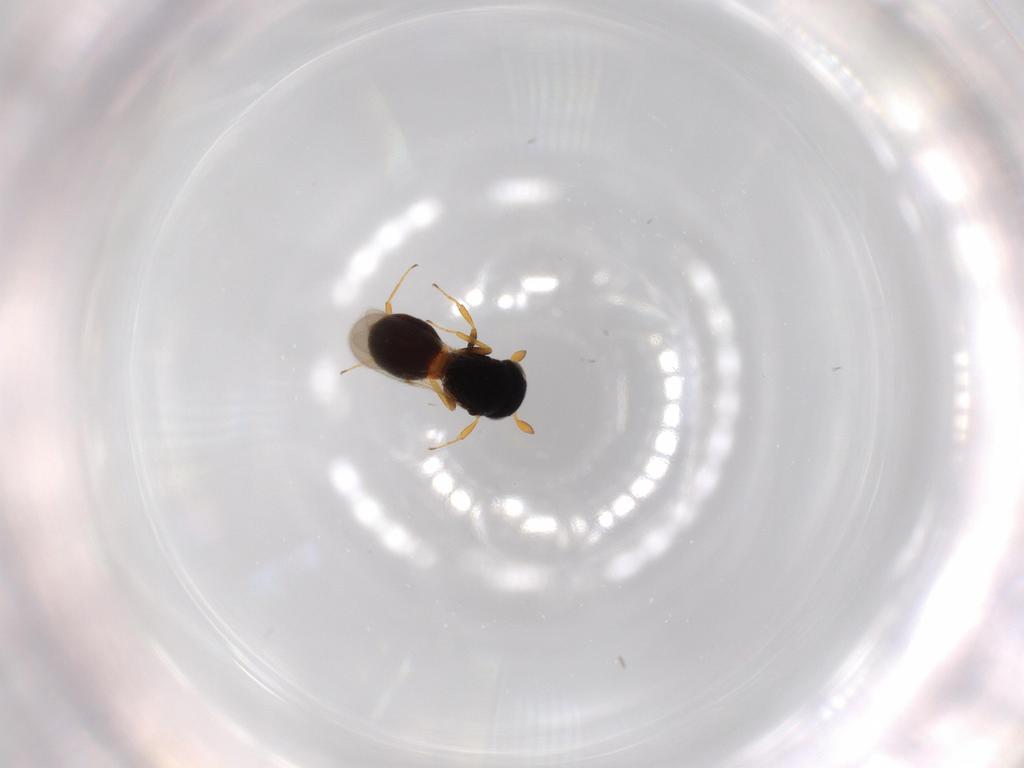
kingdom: Animalia
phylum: Arthropoda
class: Insecta
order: Hymenoptera
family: Scelionidae
